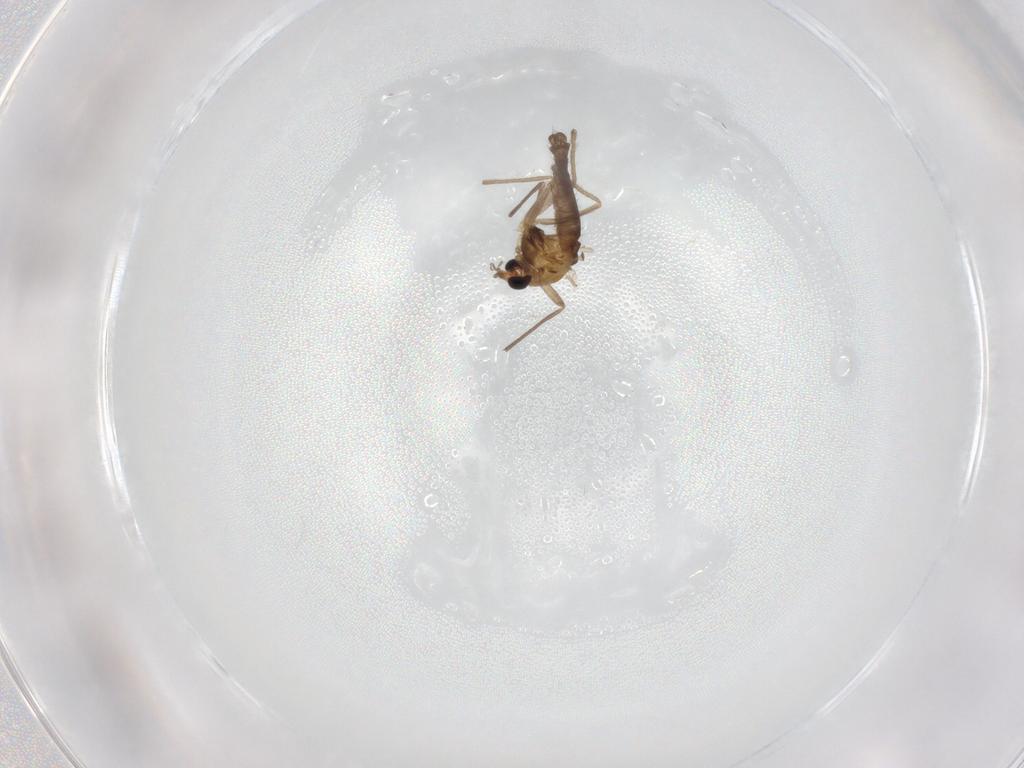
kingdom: Animalia
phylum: Arthropoda
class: Insecta
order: Diptera
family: Chironomidae
